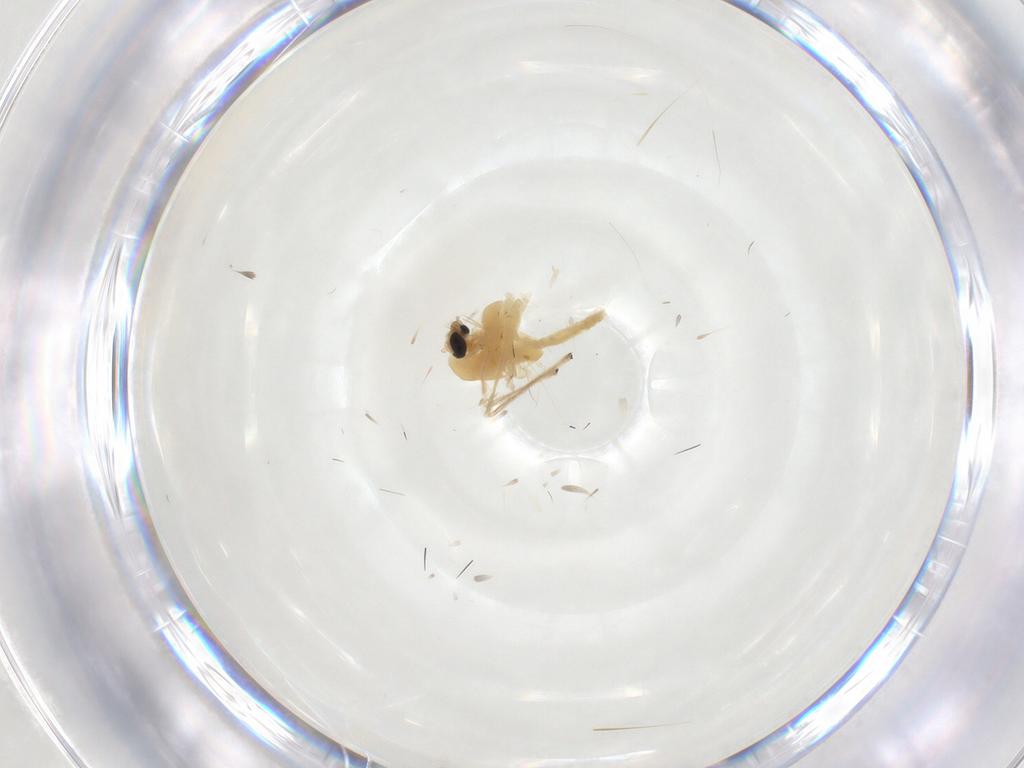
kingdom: Animalia
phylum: Arthropoda
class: Insecta
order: Diptera
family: Chironomidae
